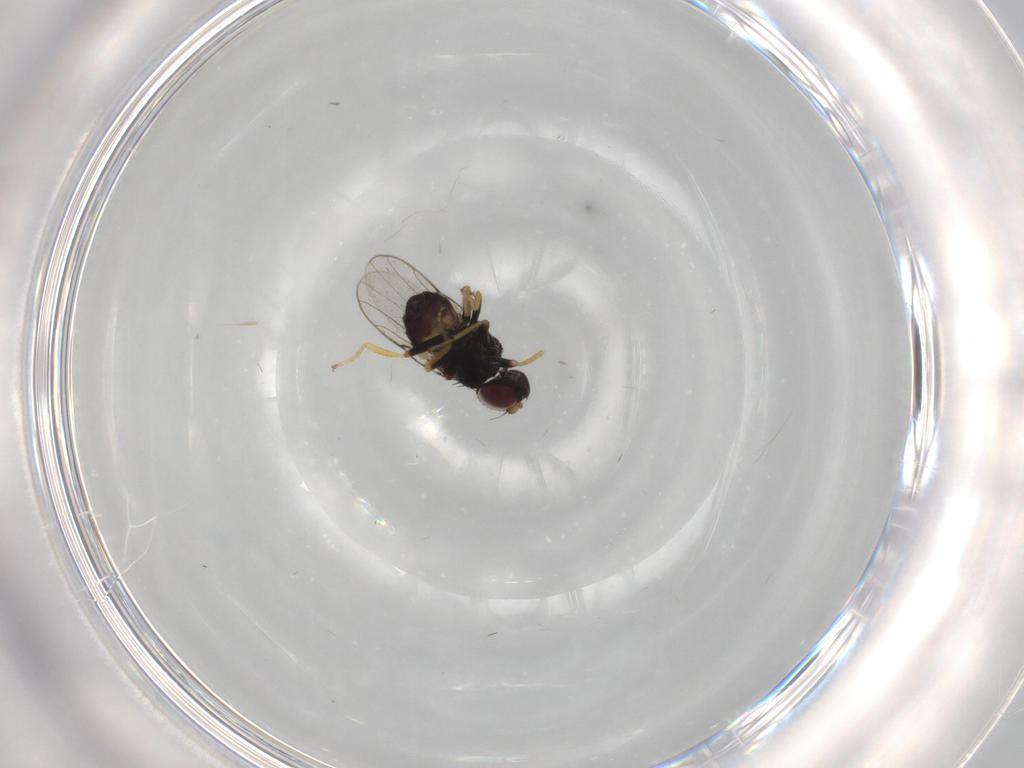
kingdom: Animalia
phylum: Arthropoda
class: Insecta
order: Diptera
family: Chloropidae
